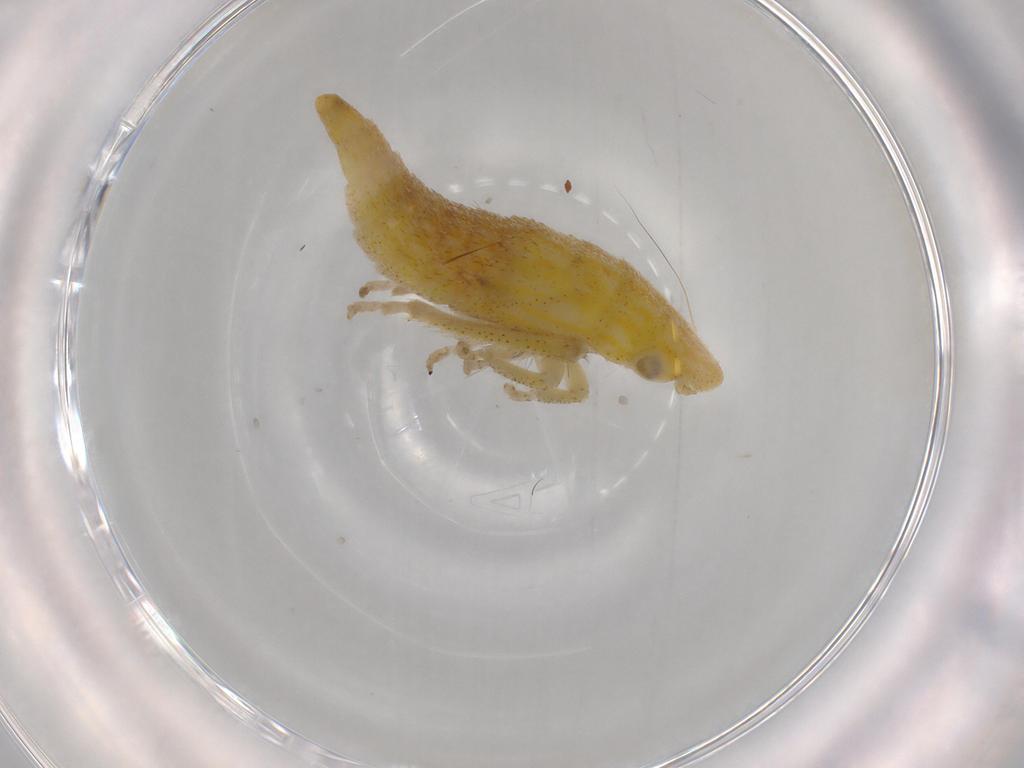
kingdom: Animalia
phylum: Arthropoda
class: Insecta
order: Hemiptera
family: Cicadellidae
